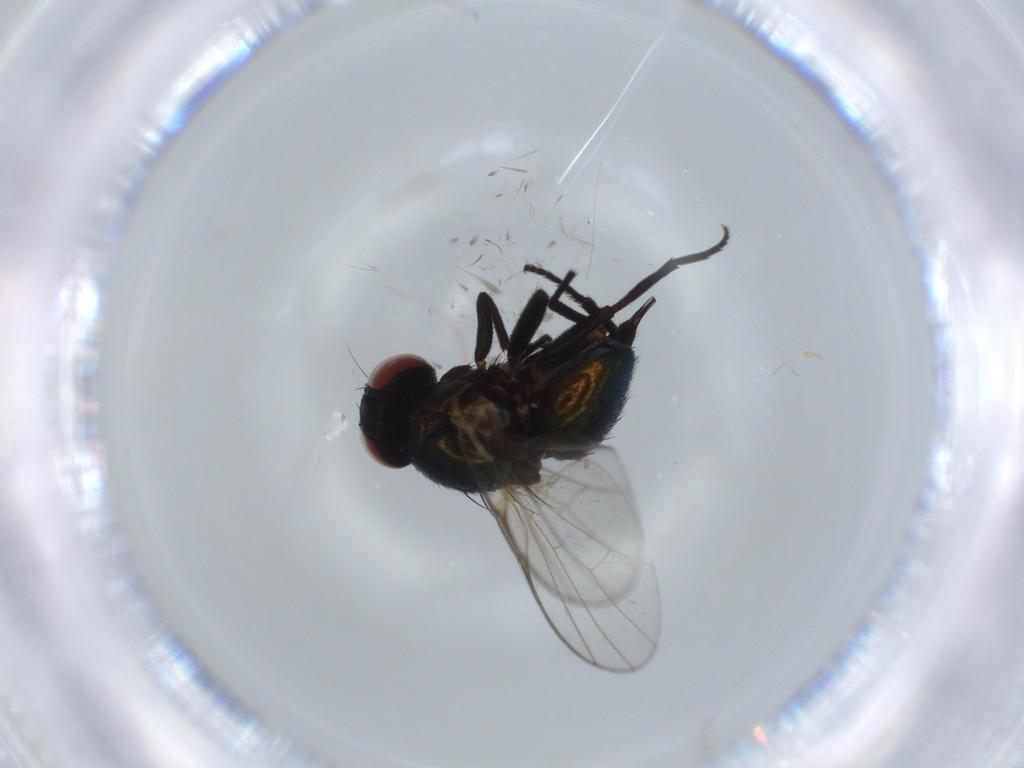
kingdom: Animalia
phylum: Arthropoda
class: Insecta
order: Diptera
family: Agromyzidae
